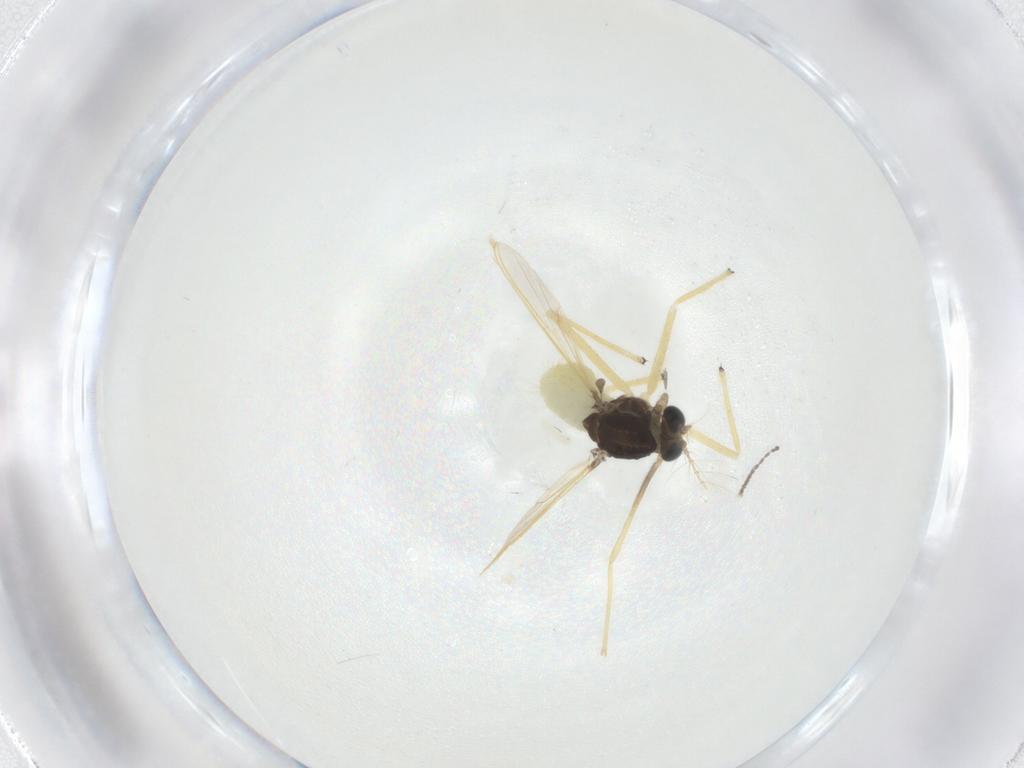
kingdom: Animalia
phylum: Arthropoda
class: Insecta
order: Diptera
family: Chironomidae
